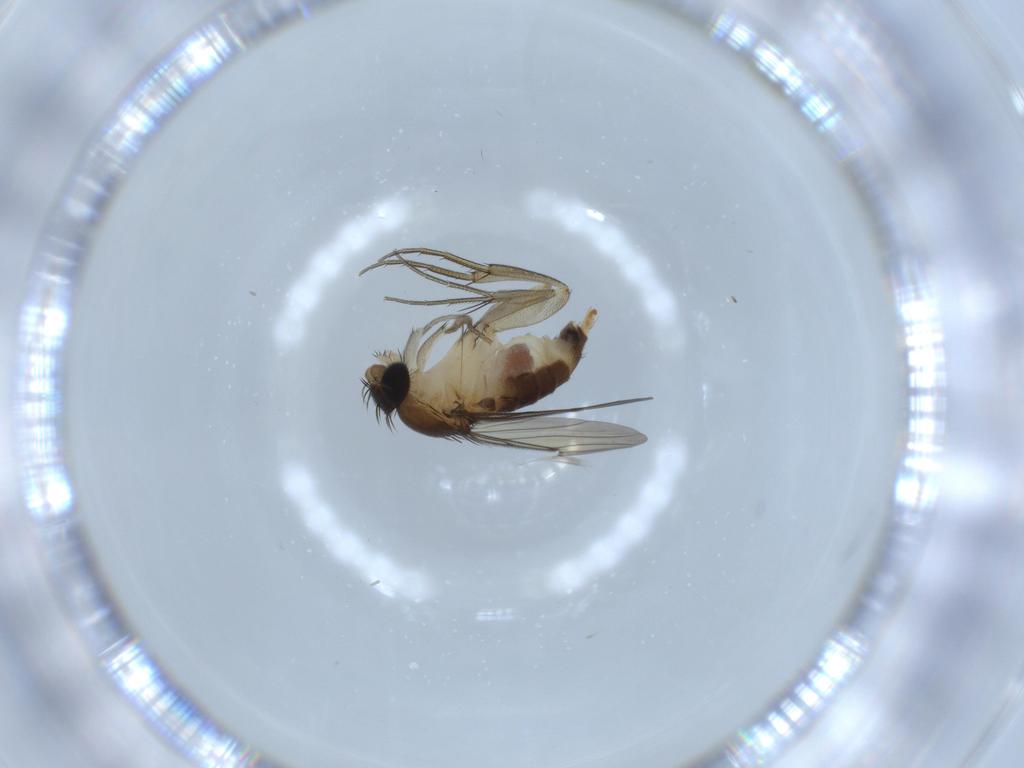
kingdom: Animalia
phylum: Arthropoda
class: Insecta
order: Diptera
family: Phoridae
